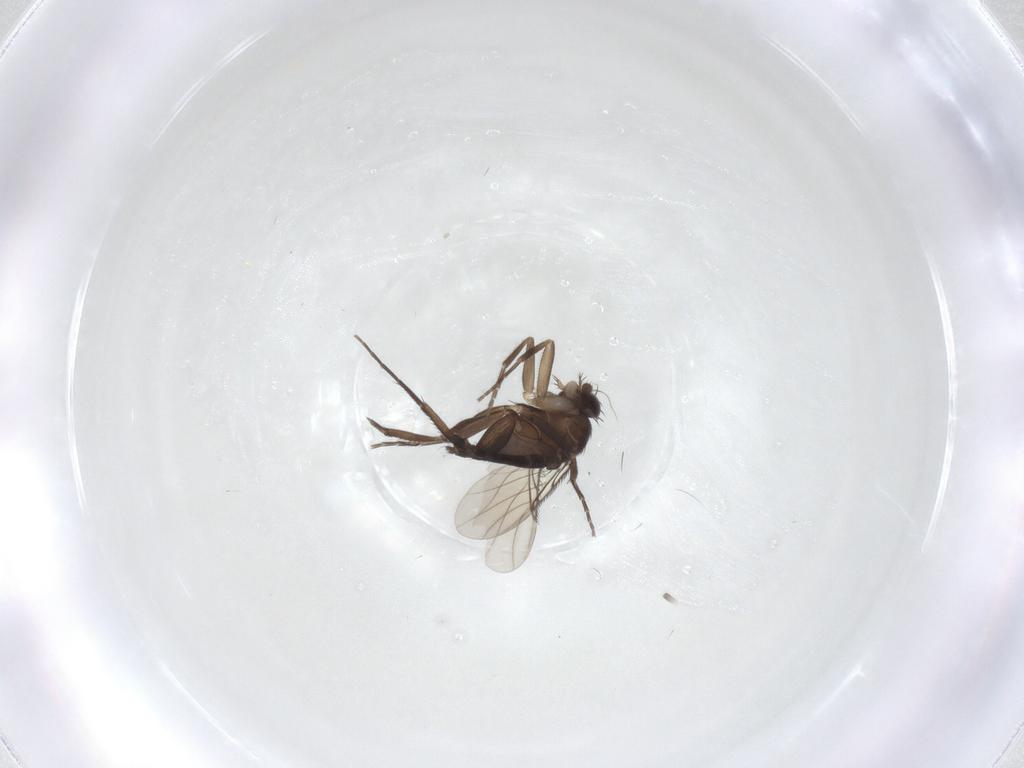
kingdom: Animalia
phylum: Arthropoda
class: Insecta
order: Diptera
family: Phoridae
